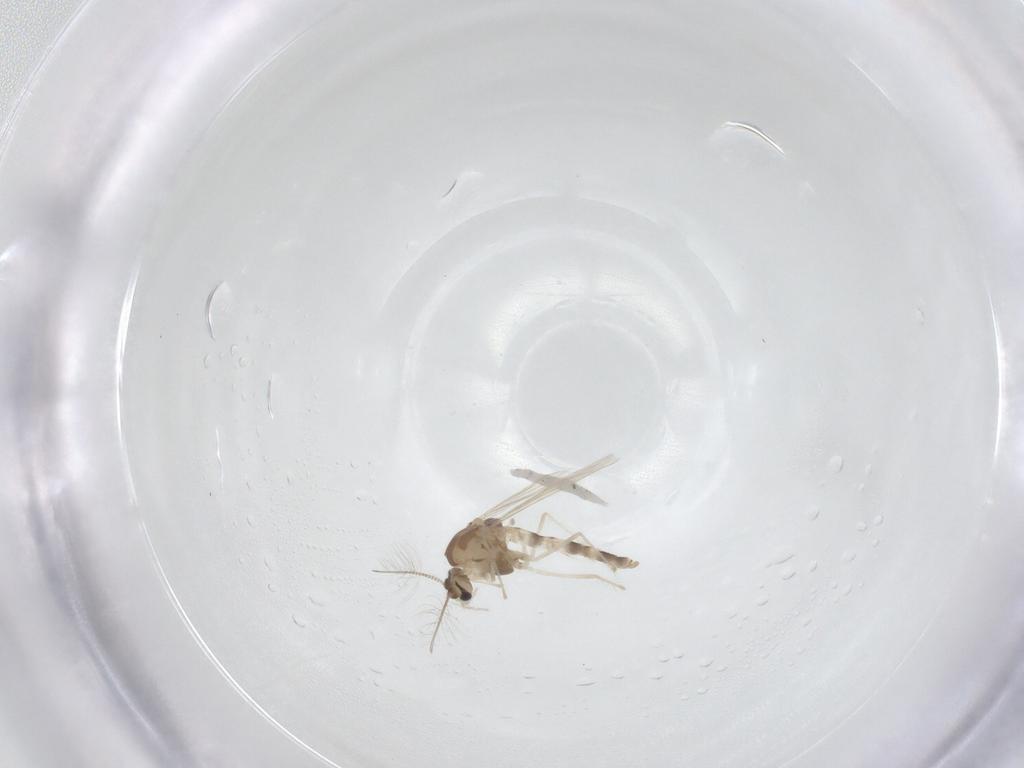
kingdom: Animalia
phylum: Arthropoda
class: Insecta
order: Diptera
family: Chironomidae
